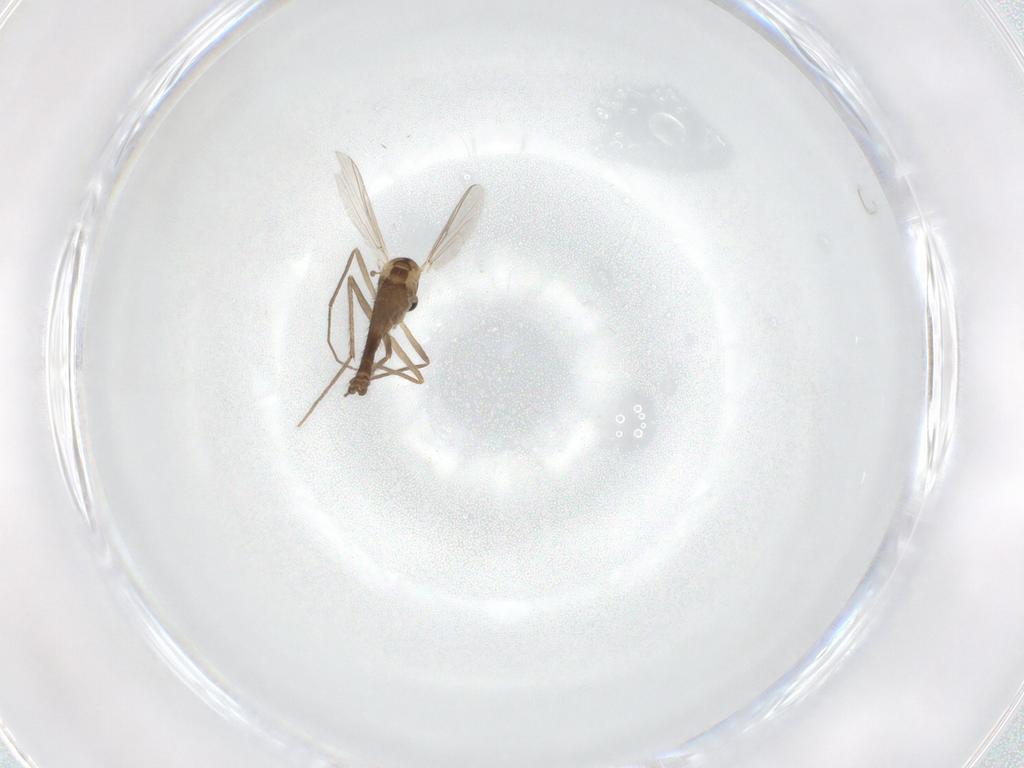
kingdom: Animalia
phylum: Arthropoda
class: Insecta
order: Diptera
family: Chironomidae
